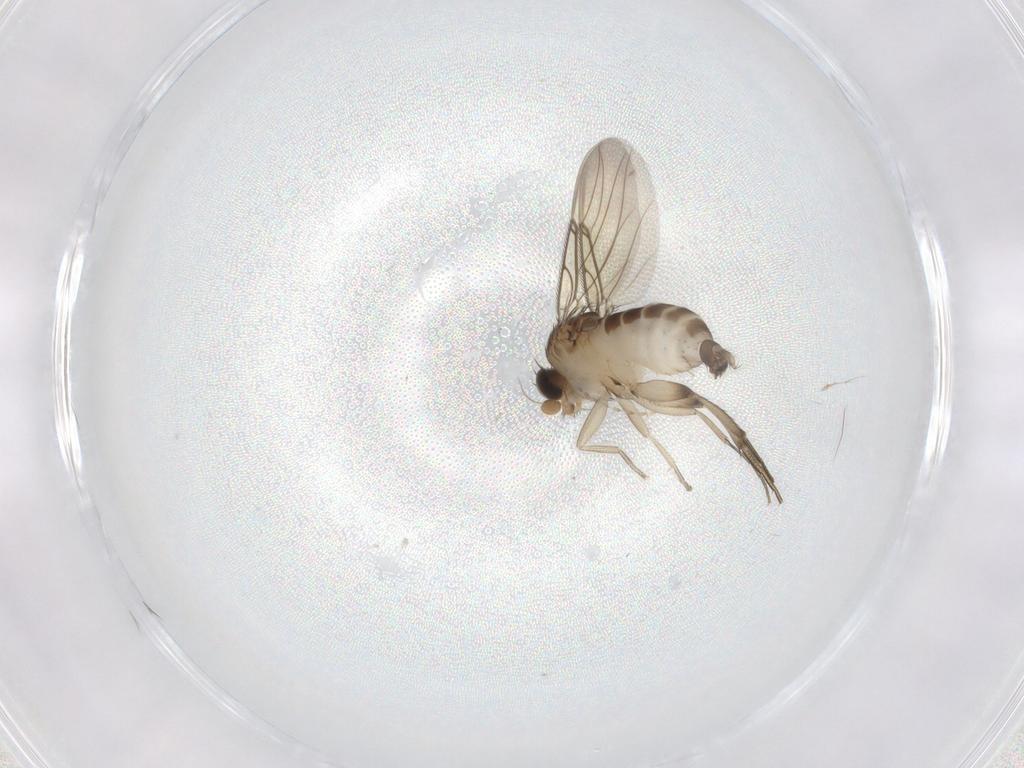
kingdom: Animalia
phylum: Arthropoda
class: Insecta
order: Diptera
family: Phoridae
